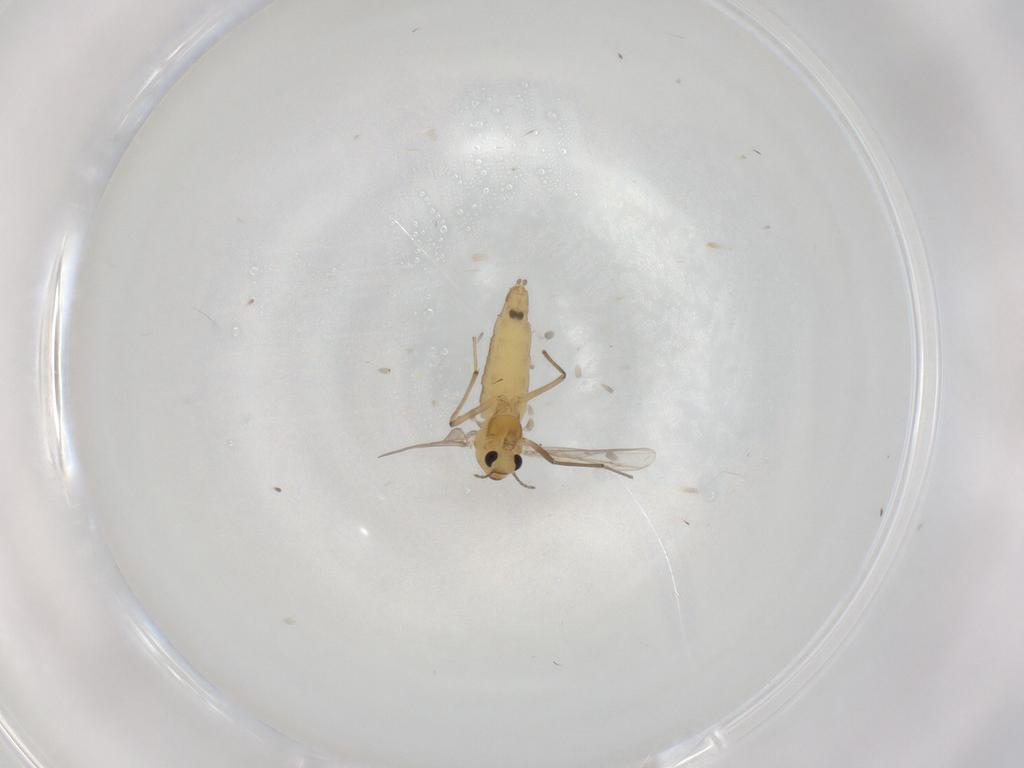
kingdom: Animalia
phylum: Arthropoda
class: Insecta
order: Diptera
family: Chironomidae
